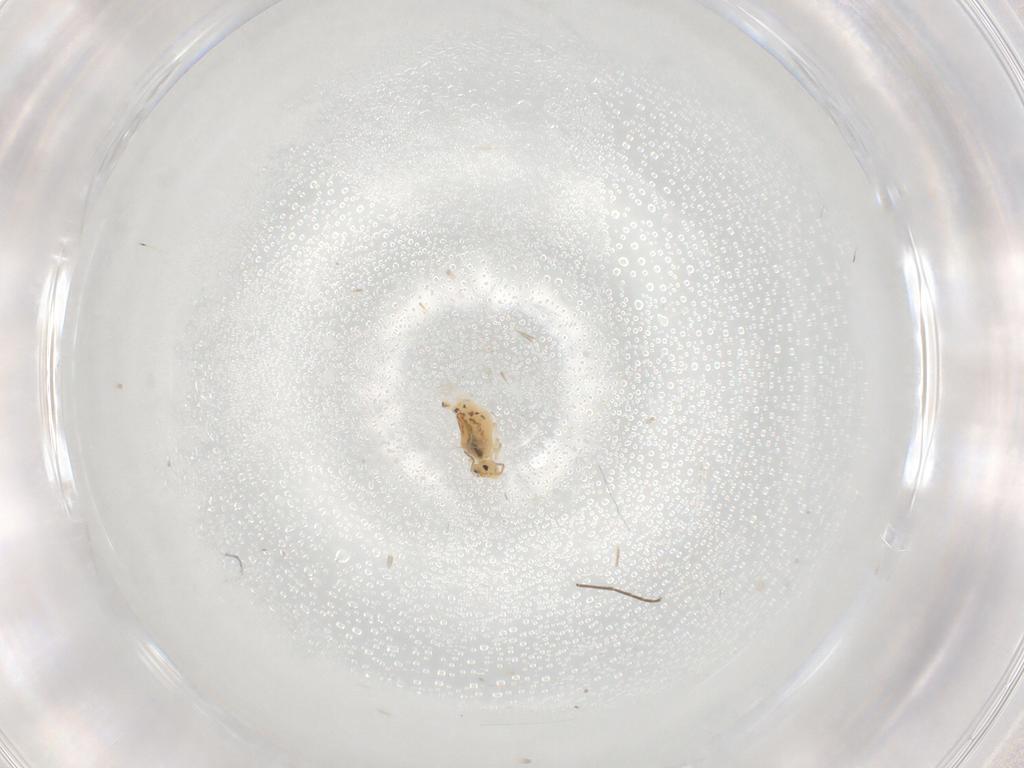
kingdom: Animalia
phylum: Arthropoda
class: Collembola
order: Symphypleona
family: Bourletiellidae
